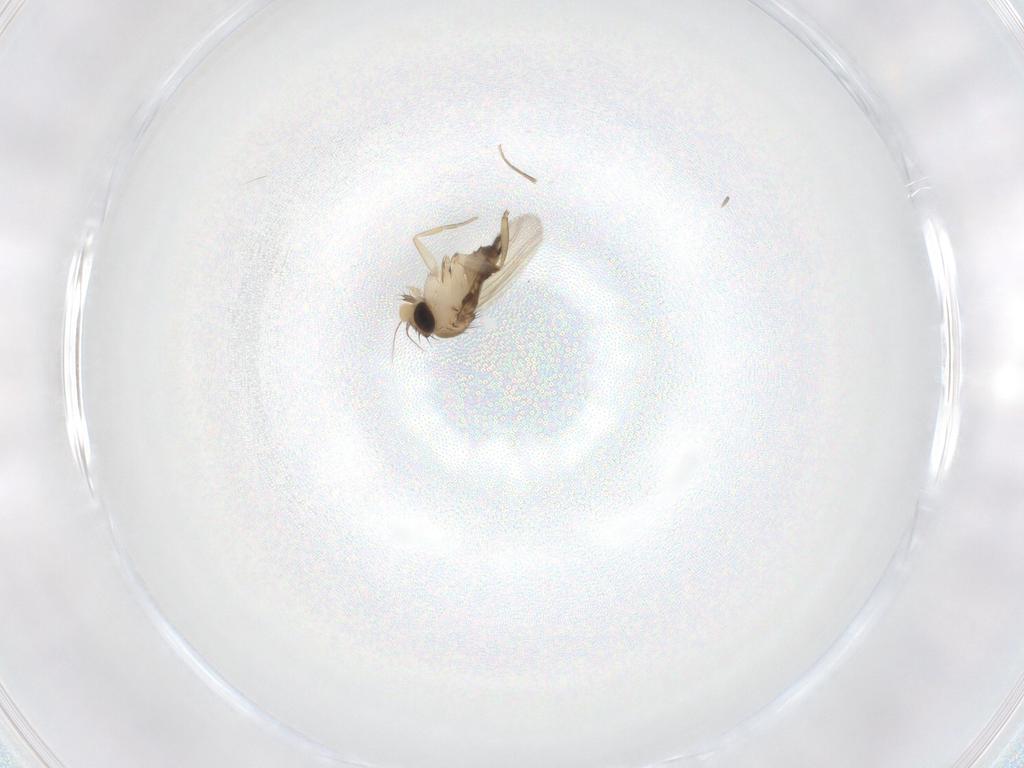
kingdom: Animalia
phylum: Arthropoda
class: Insecta
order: Diptera
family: Phoridae
